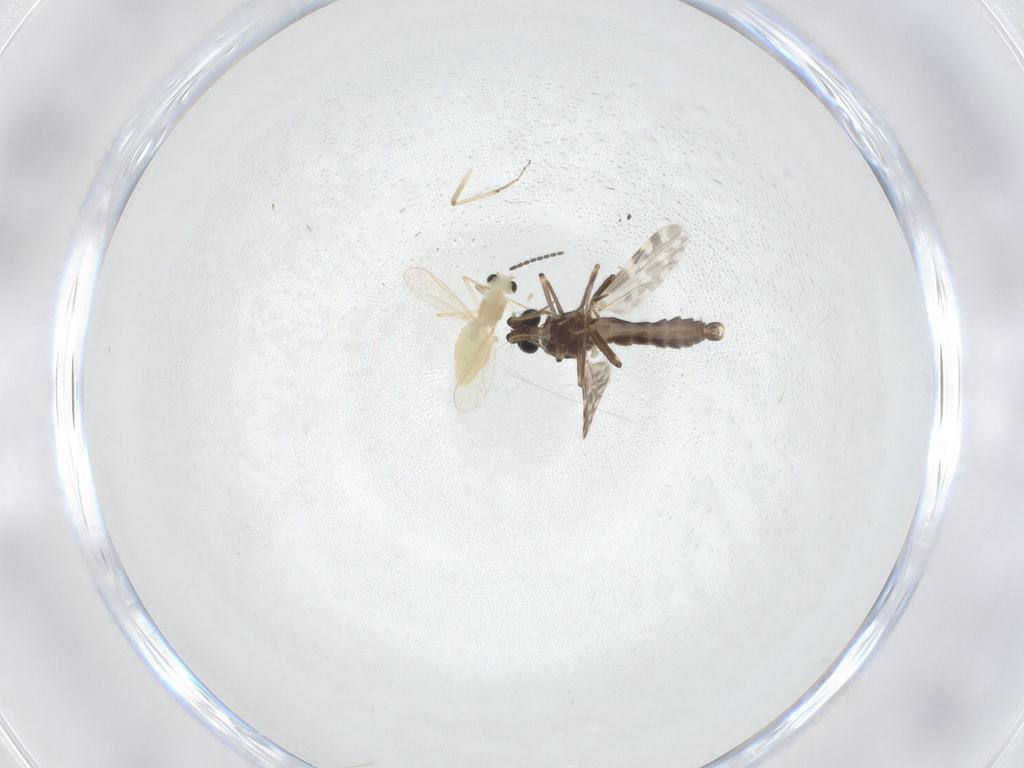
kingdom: Animalia
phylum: Arthropoda
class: Insecta
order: Diptera
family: Chironomidae
